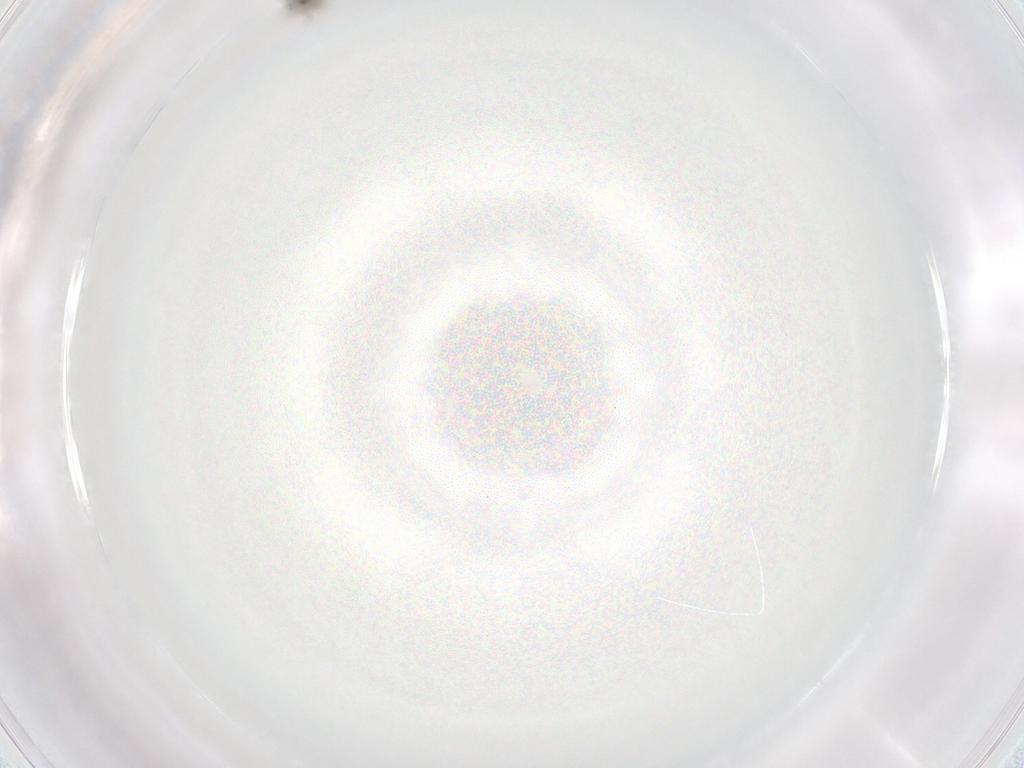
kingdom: Animalia
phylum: Arthropoda
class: Insecta
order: Diptera
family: Cecidomyiidae
